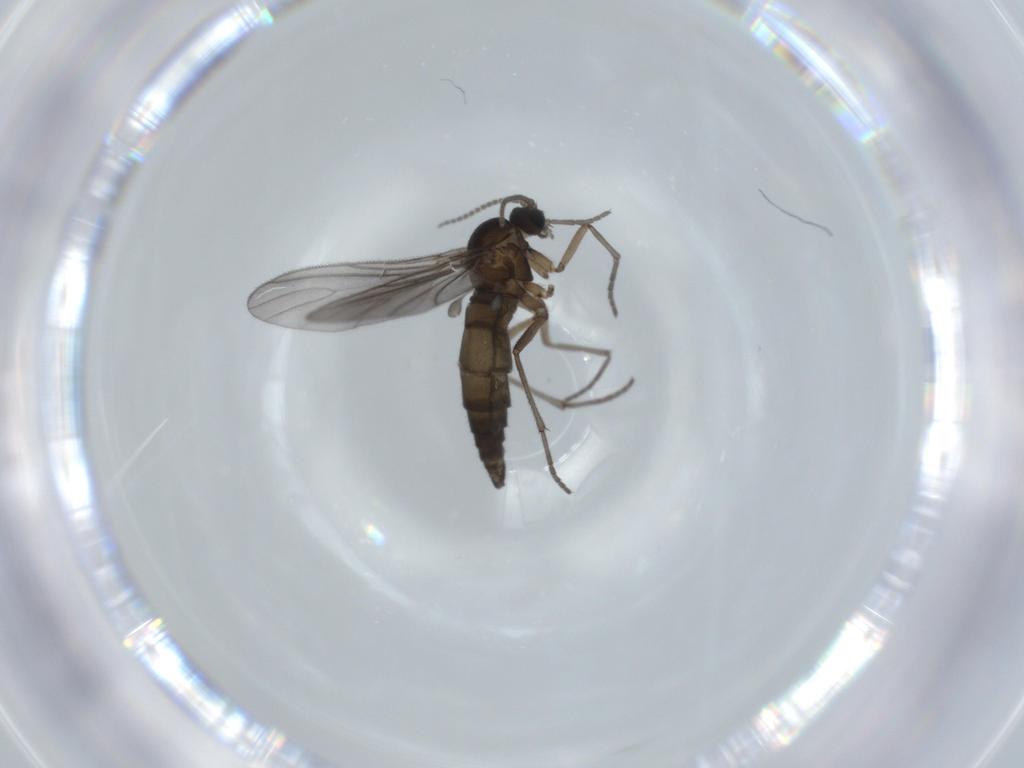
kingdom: Animalia
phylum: Arthropoda
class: Insecta
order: Diptera
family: Sciaridae
